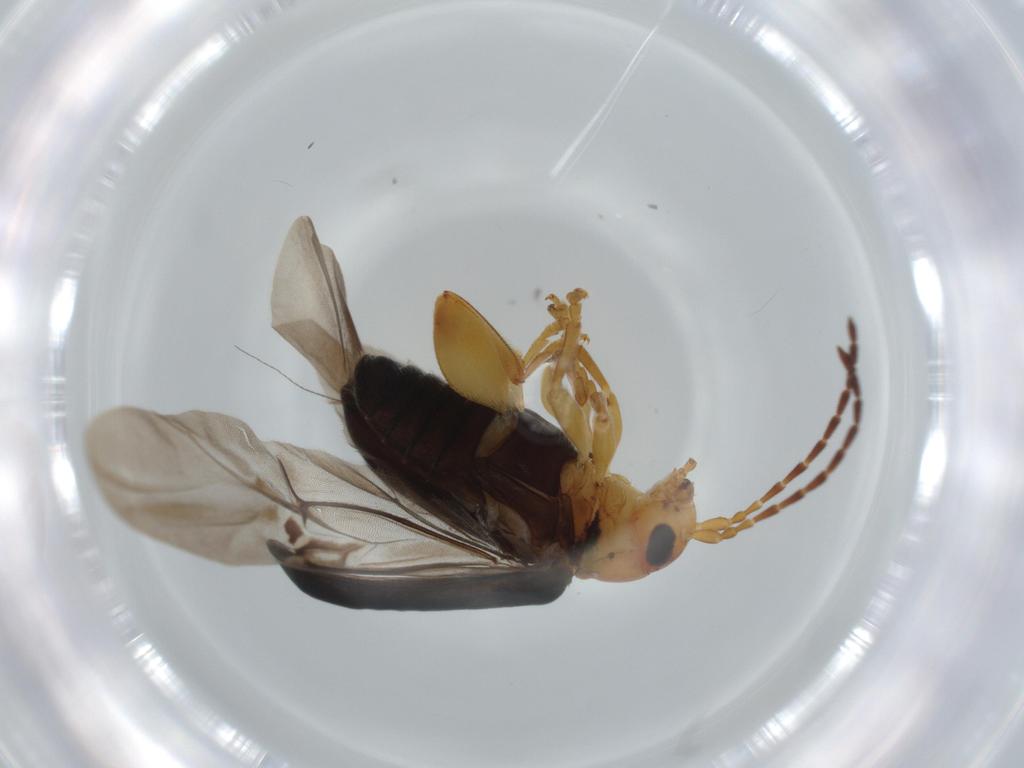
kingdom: Animalia
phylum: Arthropoda
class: Insecta
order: Coleoptera
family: Chrysomelidae
